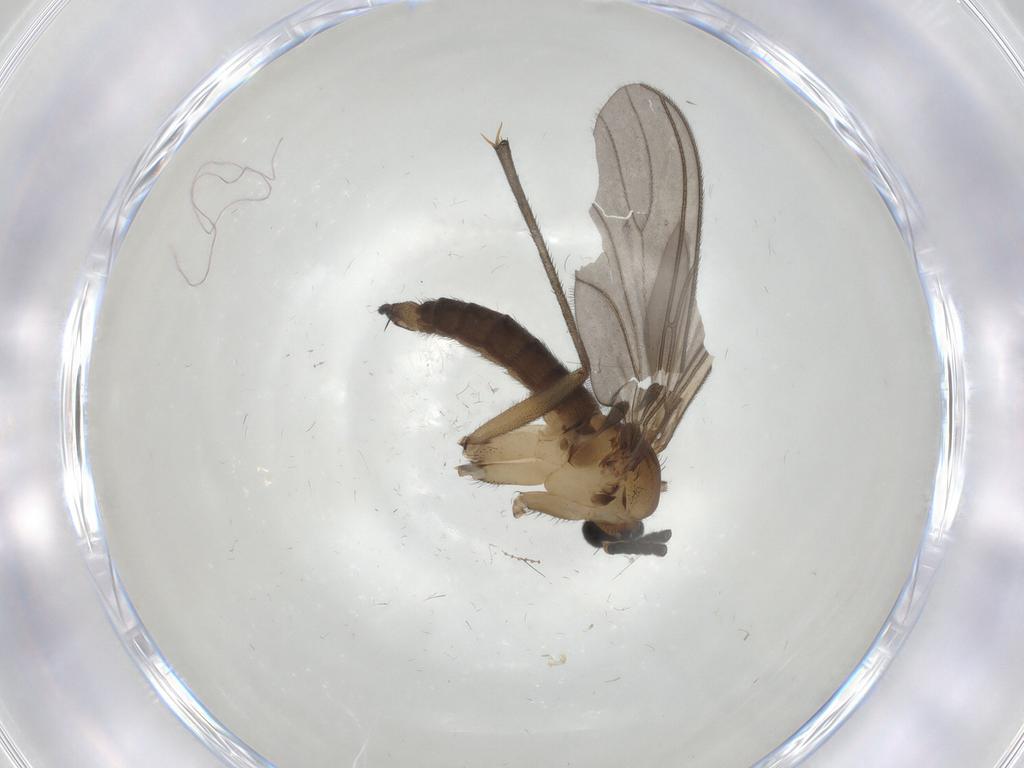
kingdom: Animalia
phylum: Arthropoda
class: Insecta
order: Diptera
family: Sciaridae
